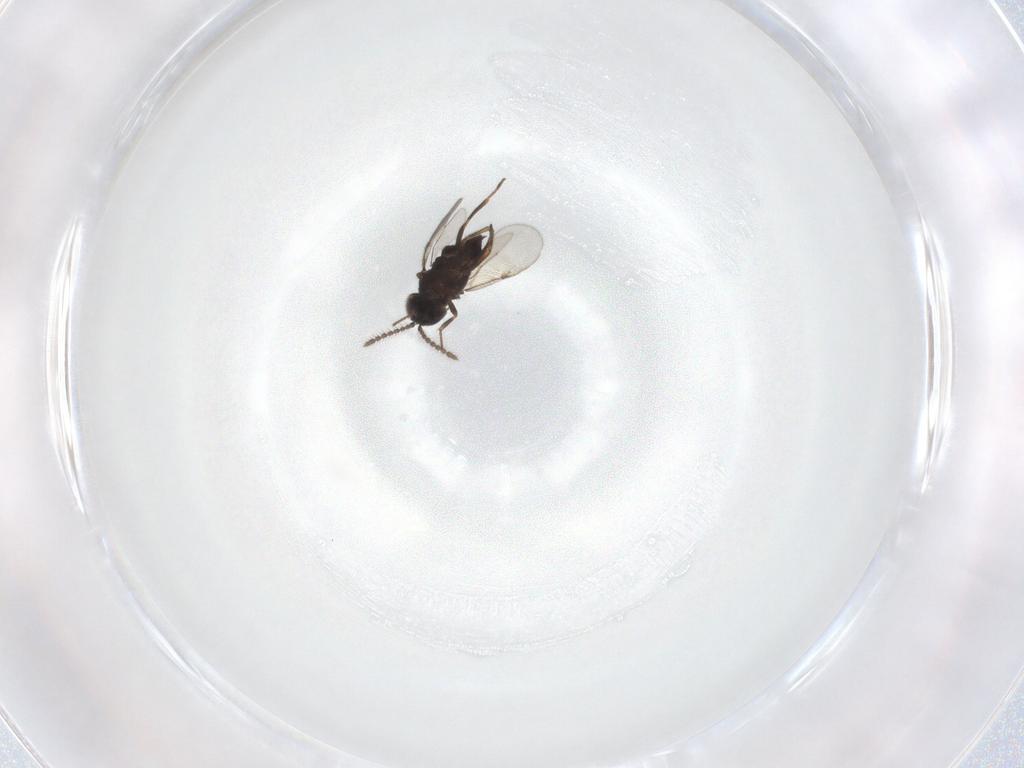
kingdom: Animalia
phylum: Arthropoda
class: Insecta
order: Hymenoptera
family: Encyrtidae
